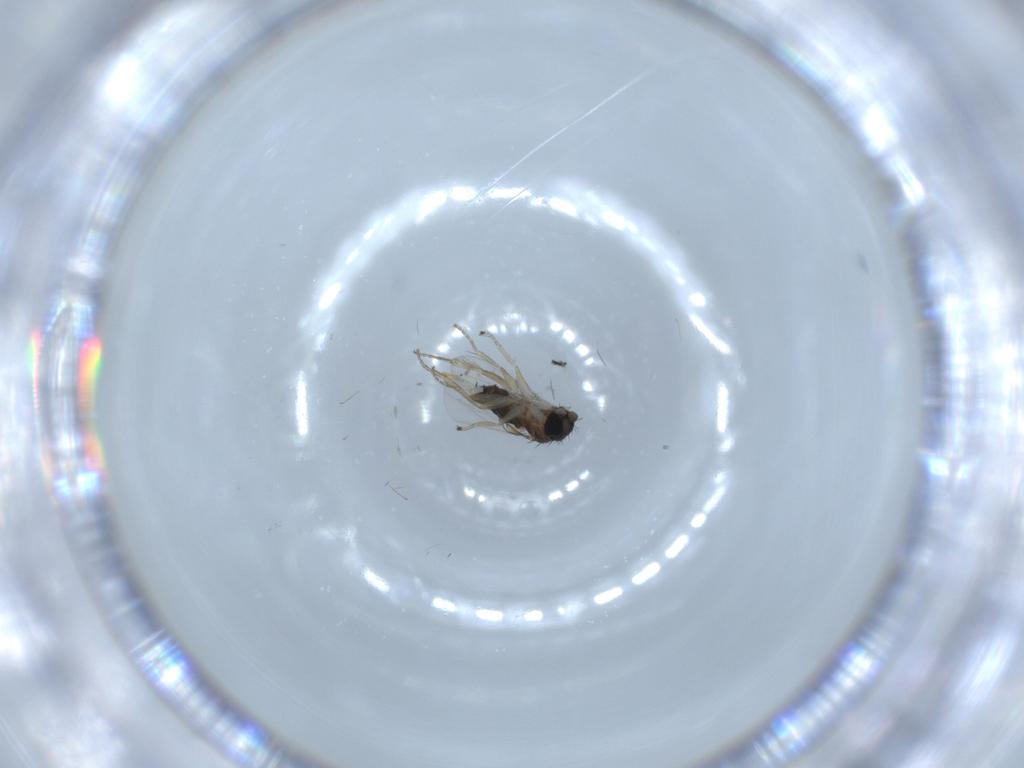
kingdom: Animalia
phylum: Arthropoda
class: Insecta
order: Diptera
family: Phoridae
